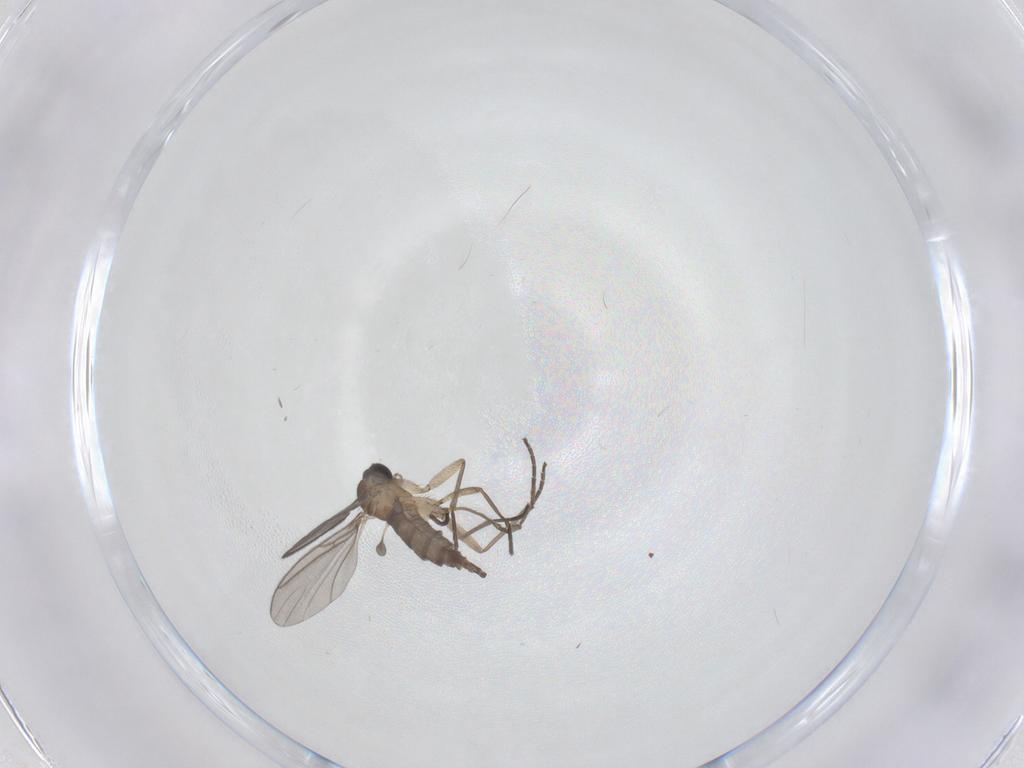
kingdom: Animalia
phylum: Arthropoda
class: Insecta
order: Diptera
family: Sciaridae
